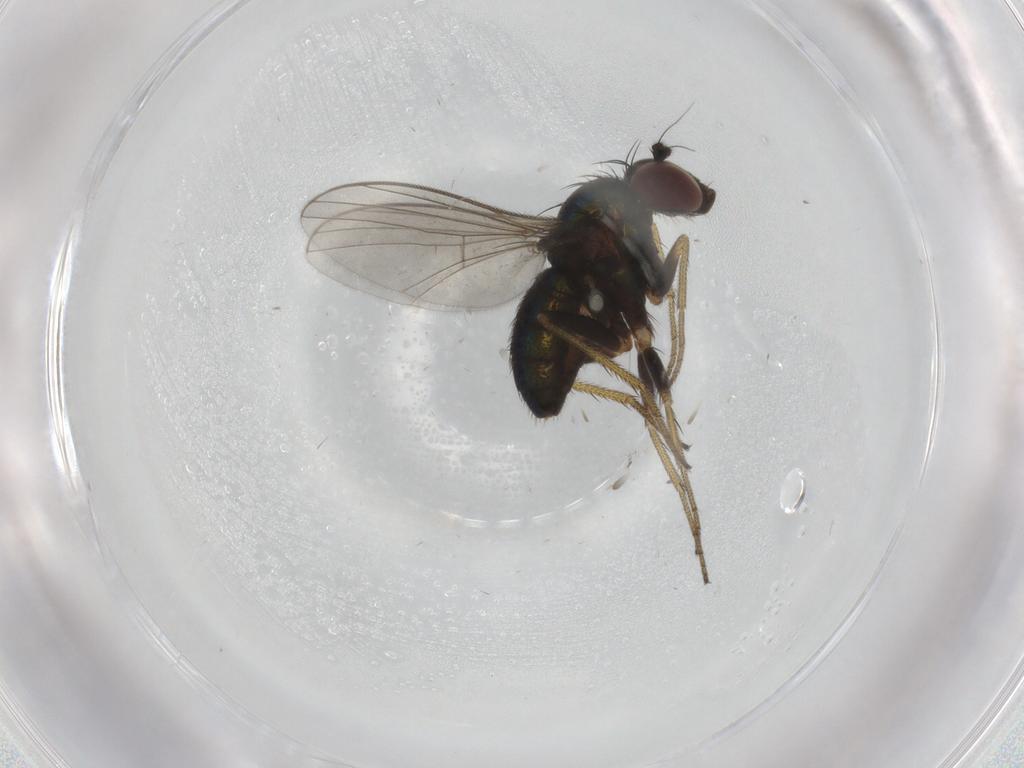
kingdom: Animalia
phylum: Arthropoda
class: Insecta
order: Diptera
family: Dolichopodidae
